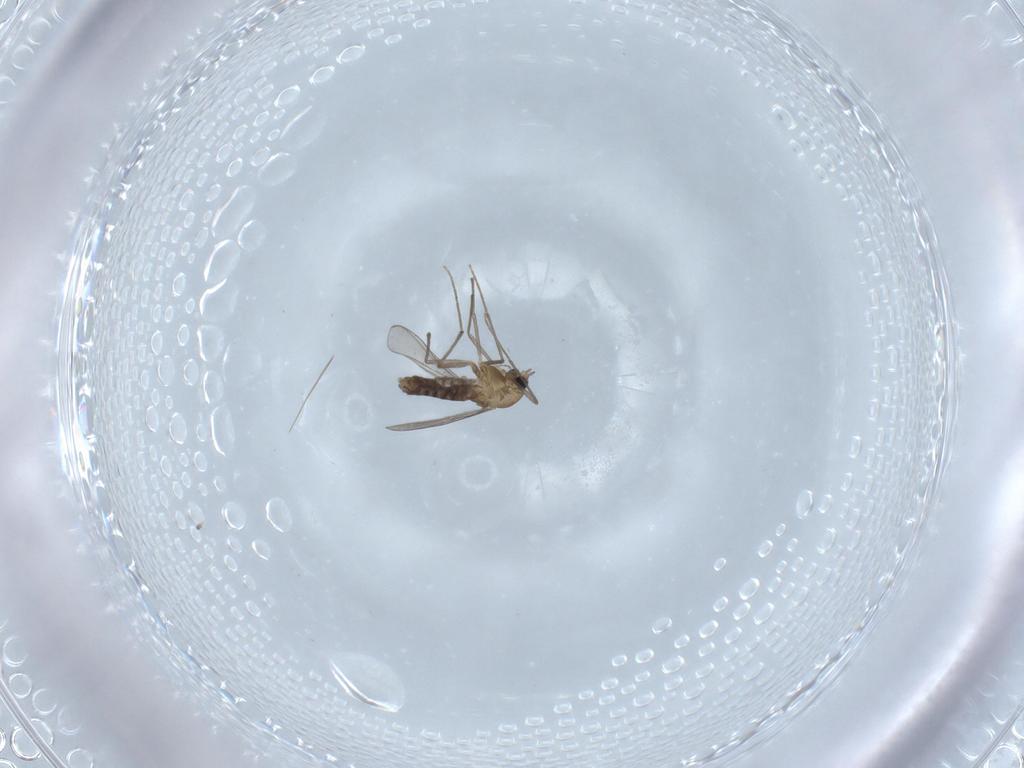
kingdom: Animalia
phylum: Arthropoda
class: Insecta
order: Diptera
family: Chironomidae
